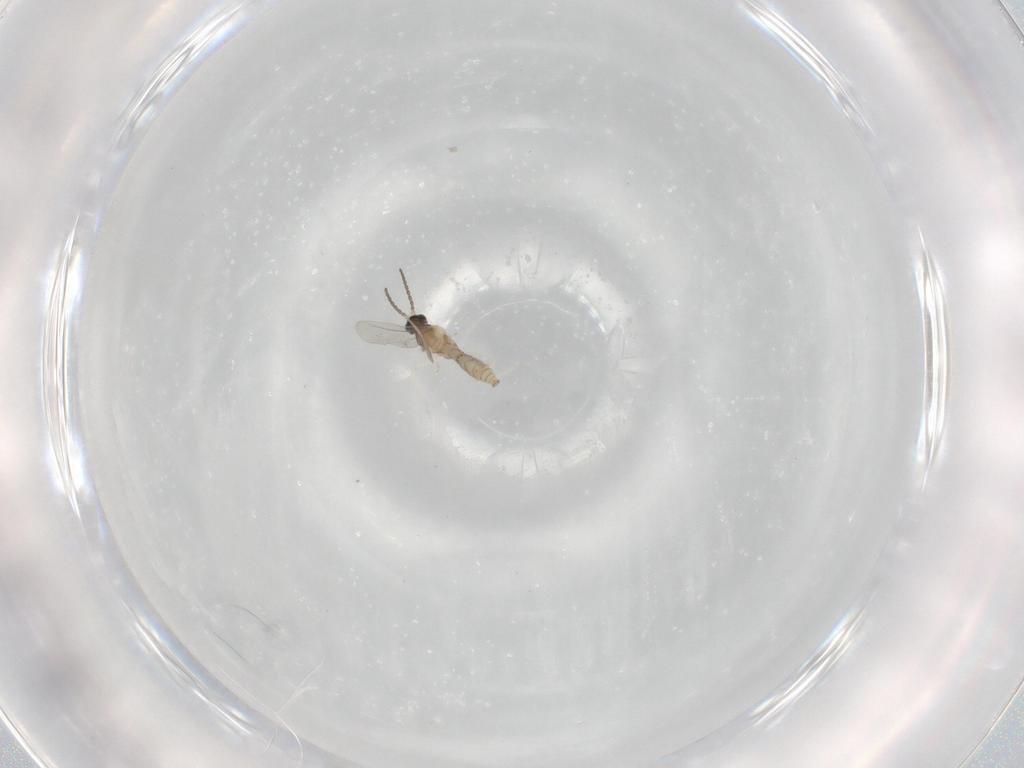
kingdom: Animalia
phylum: Arthropoda
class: Insecta
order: Diptera
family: Cecidomyiidae
